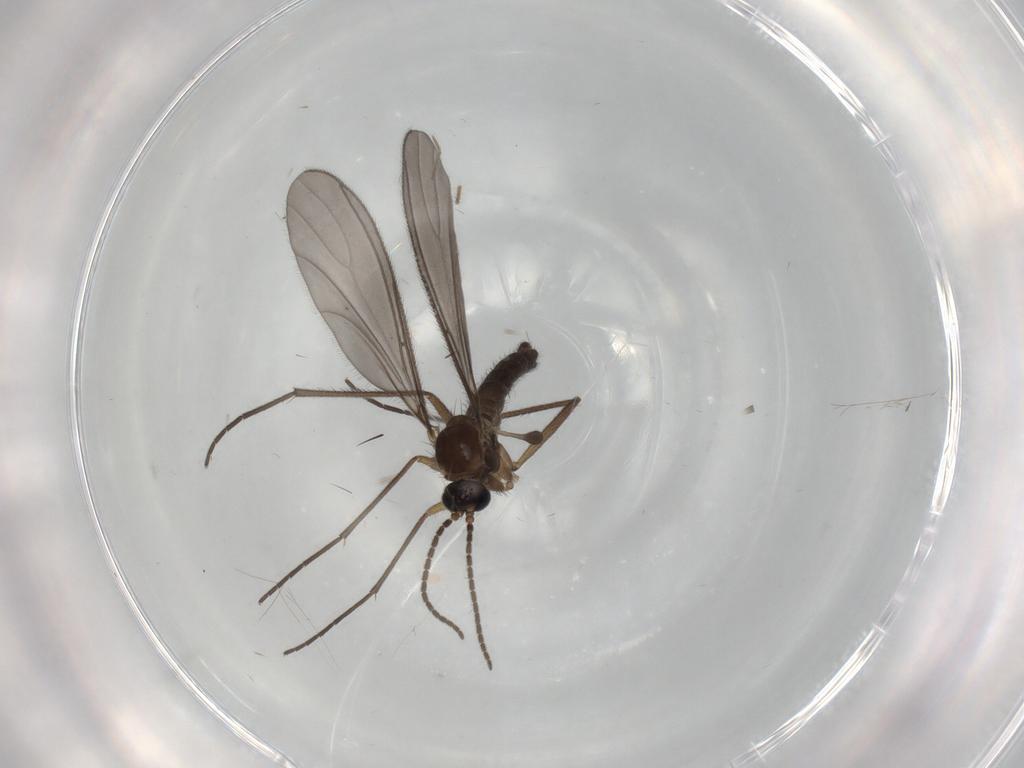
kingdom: Animalia
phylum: Arthropoda
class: Insecta
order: Diptera
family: Sciaridae
